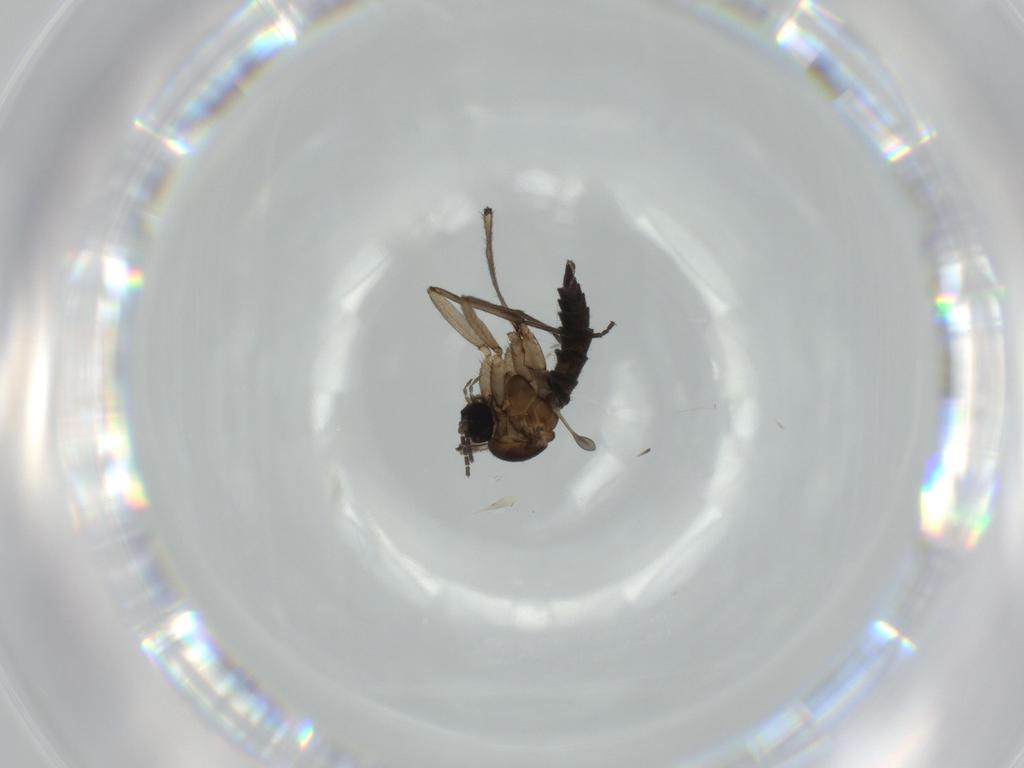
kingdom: Animalia
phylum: Arthropoda
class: Insecta
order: Diptera
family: Sciaridae
